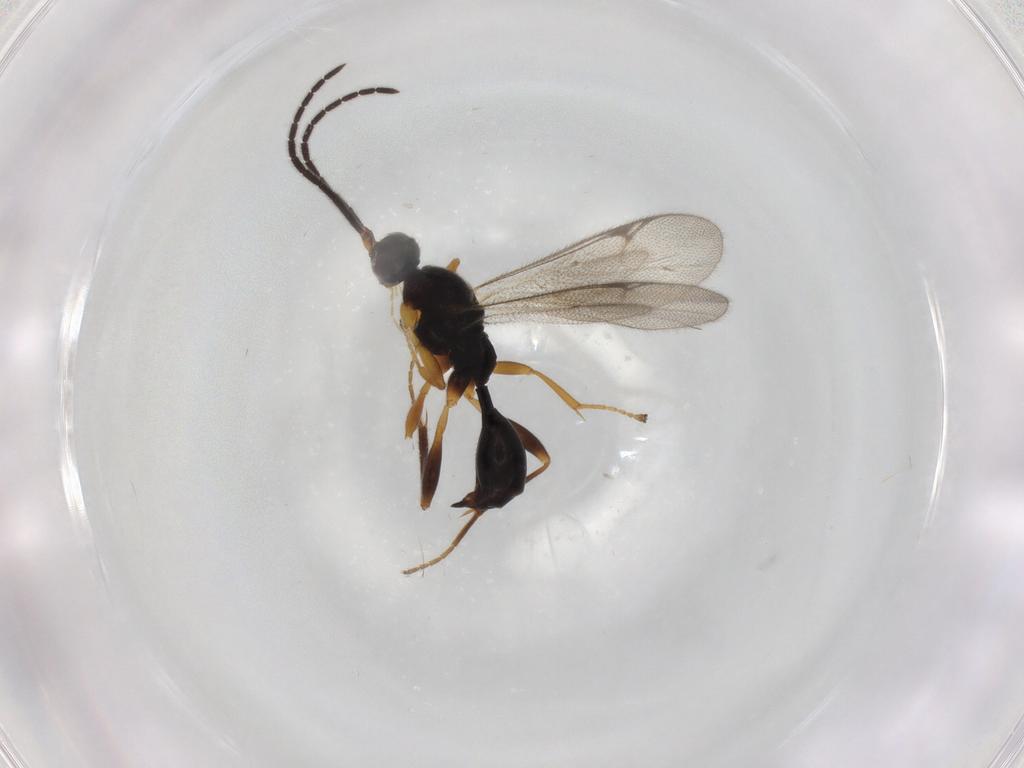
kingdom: Animalia
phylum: Arthropoda
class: Insecta
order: Hymenoptera
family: Proctotrupidae
